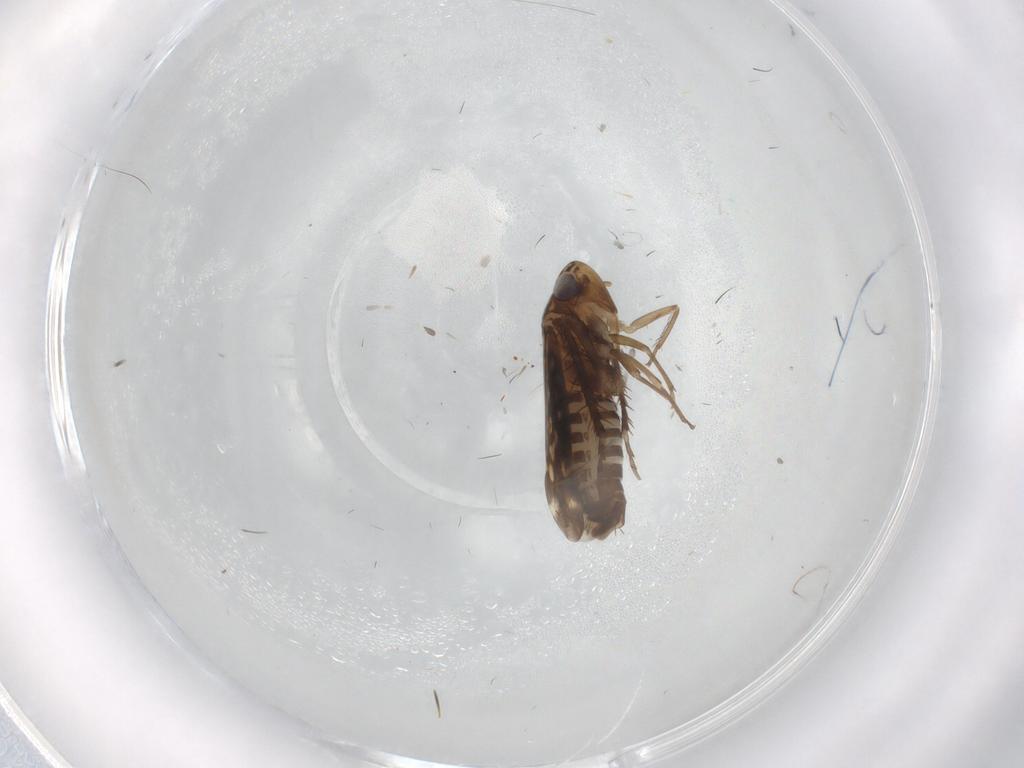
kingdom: Animalia
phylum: Arthropoda
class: Insecta
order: Hemiptera
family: Cicadellidae
